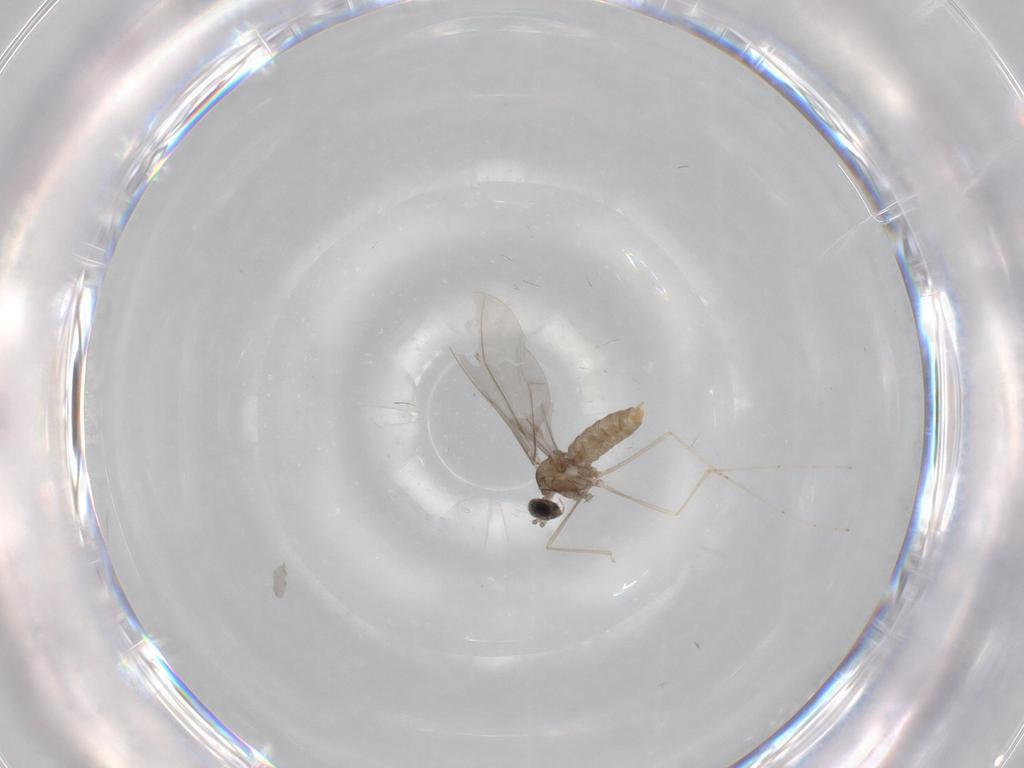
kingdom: Animalia
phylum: Arthropoda
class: Insecta
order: Diptera
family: Cecidomyiidae
